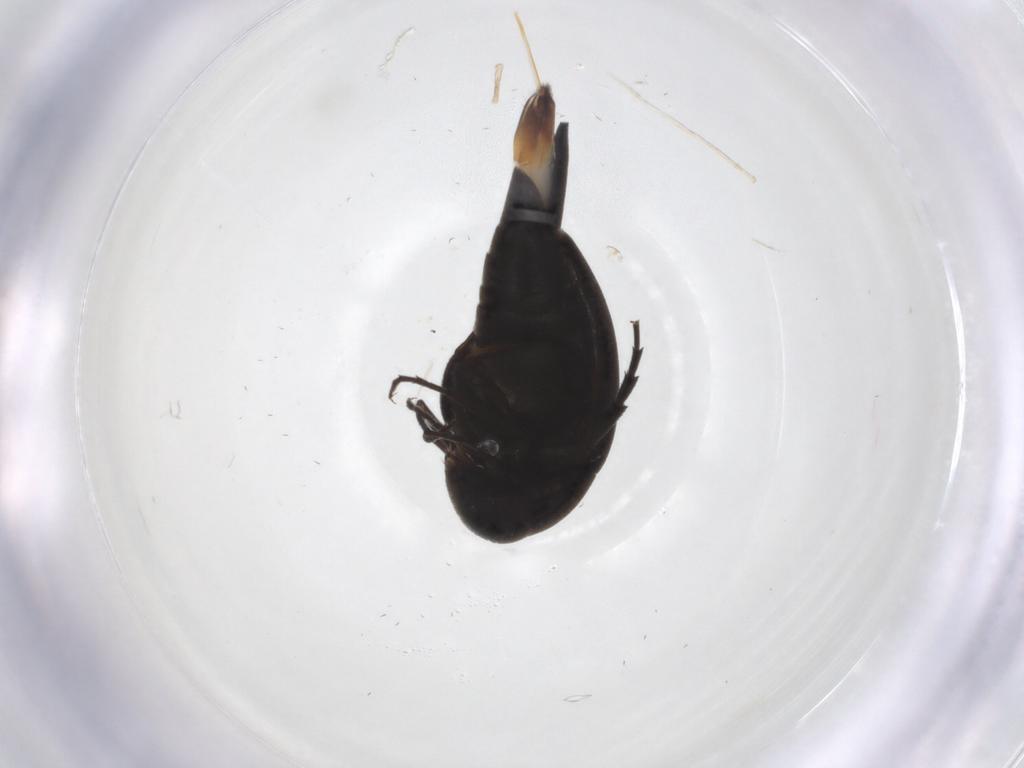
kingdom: Animalia
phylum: Arthropoda
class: Insecta
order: Coleoptera
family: Mordellidae
